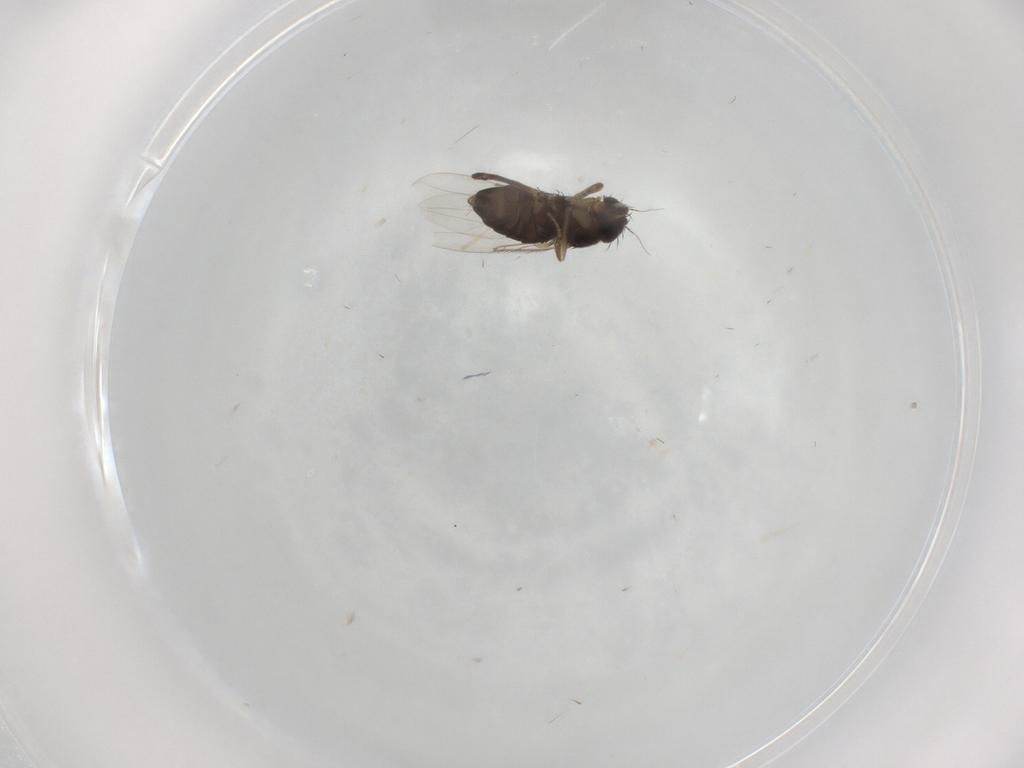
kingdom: Animalia
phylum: Arthropoda
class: Insecta
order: Diptera
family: Phoridae
